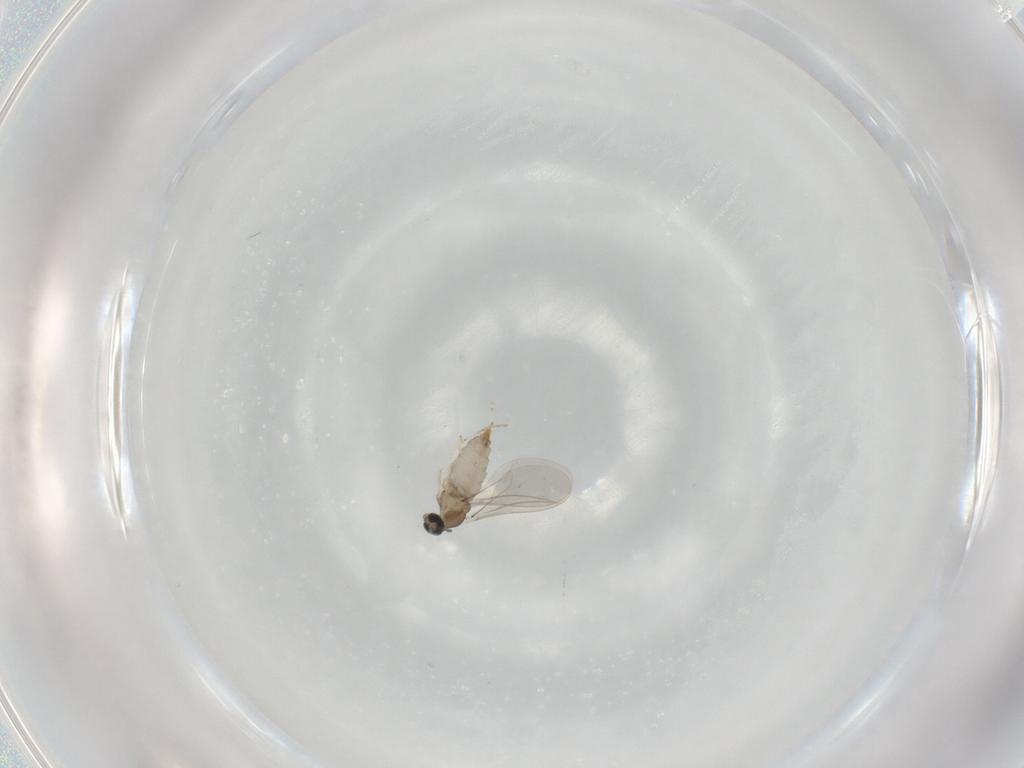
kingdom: Animalia
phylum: Arthropoda
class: Insecta
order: Diptera
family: Cecidomyiidae
